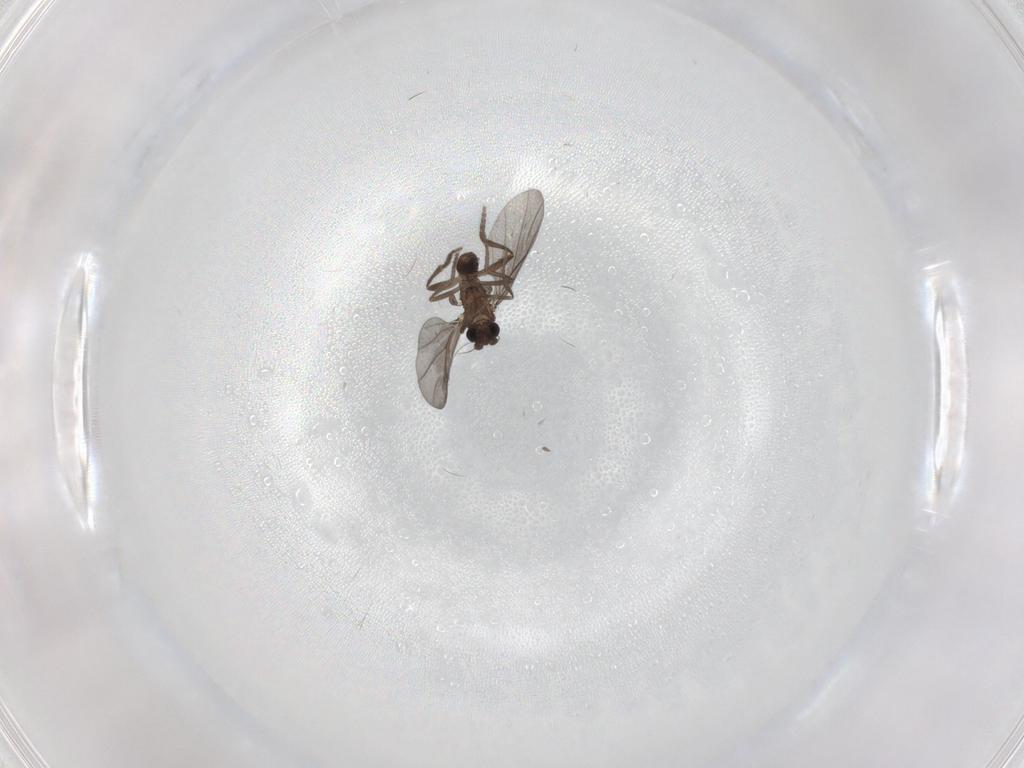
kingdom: Animalia
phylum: Arthropoda
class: Insecta
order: Diptera
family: Phoridae
